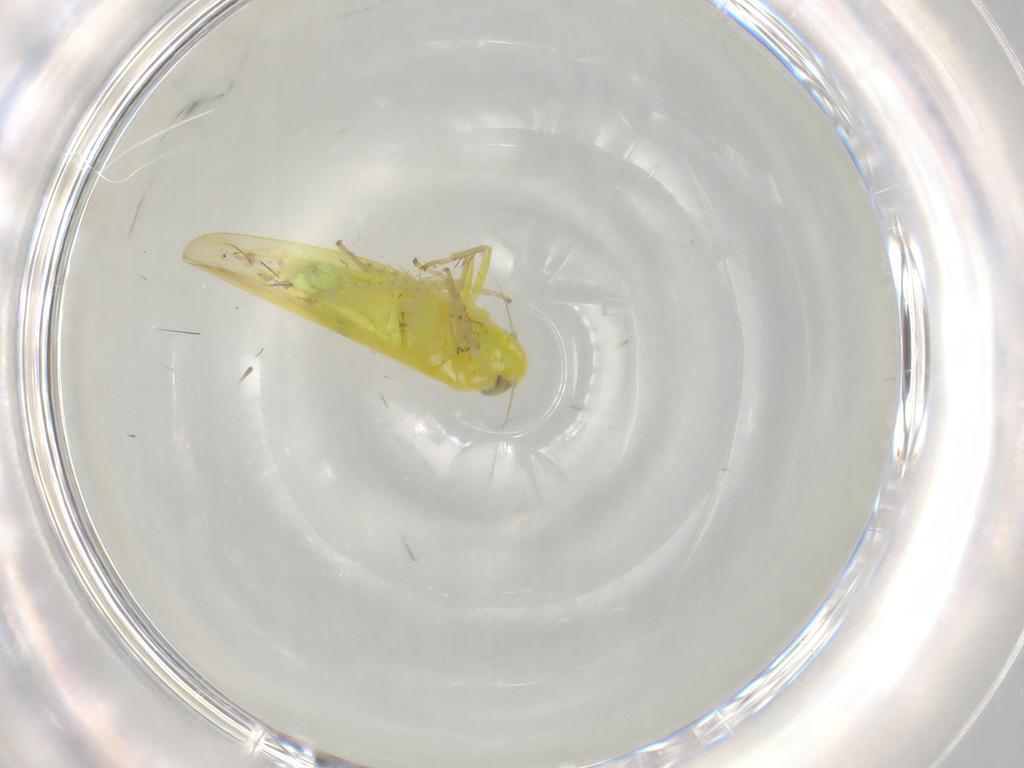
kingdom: Animalia
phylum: Arthropoda
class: Insecta
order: Hemiptera
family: Cicadellidae
